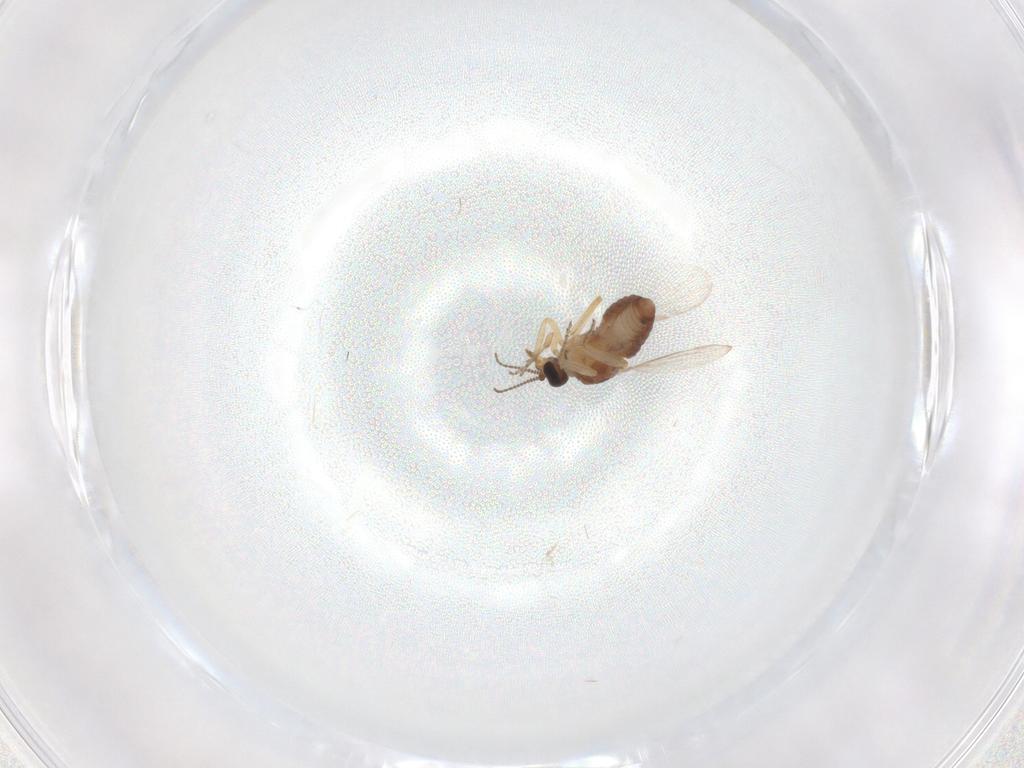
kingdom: Animalia
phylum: Arthropoda
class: Insecta
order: Diptera
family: Ceratopogonidae
